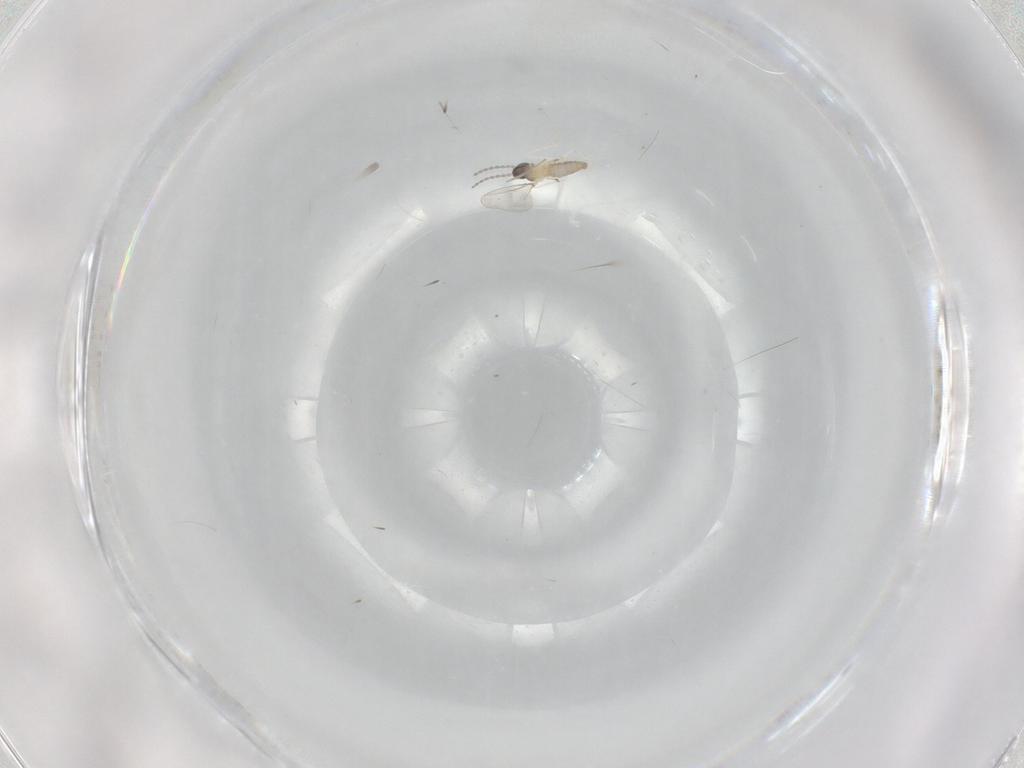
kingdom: Animalia
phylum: Arthropoda
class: Insecta
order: Diptera
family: Cecidomyiidae
